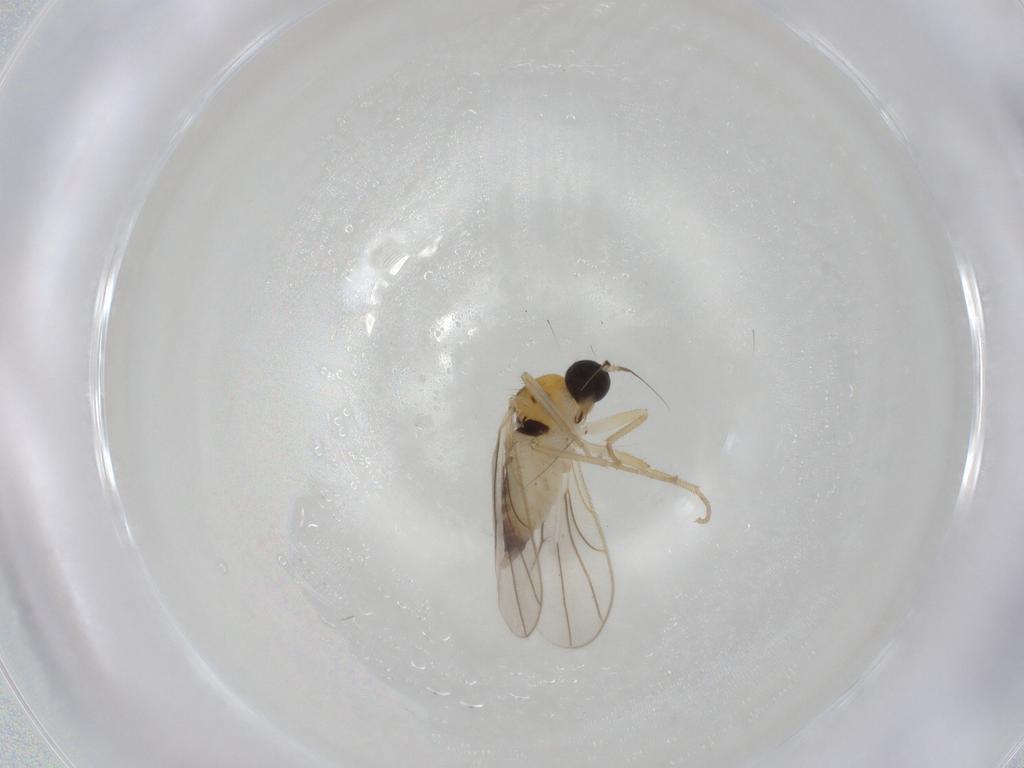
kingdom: Animalia
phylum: Arthropoda
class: Insecta
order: Diptera
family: Hybotidae
